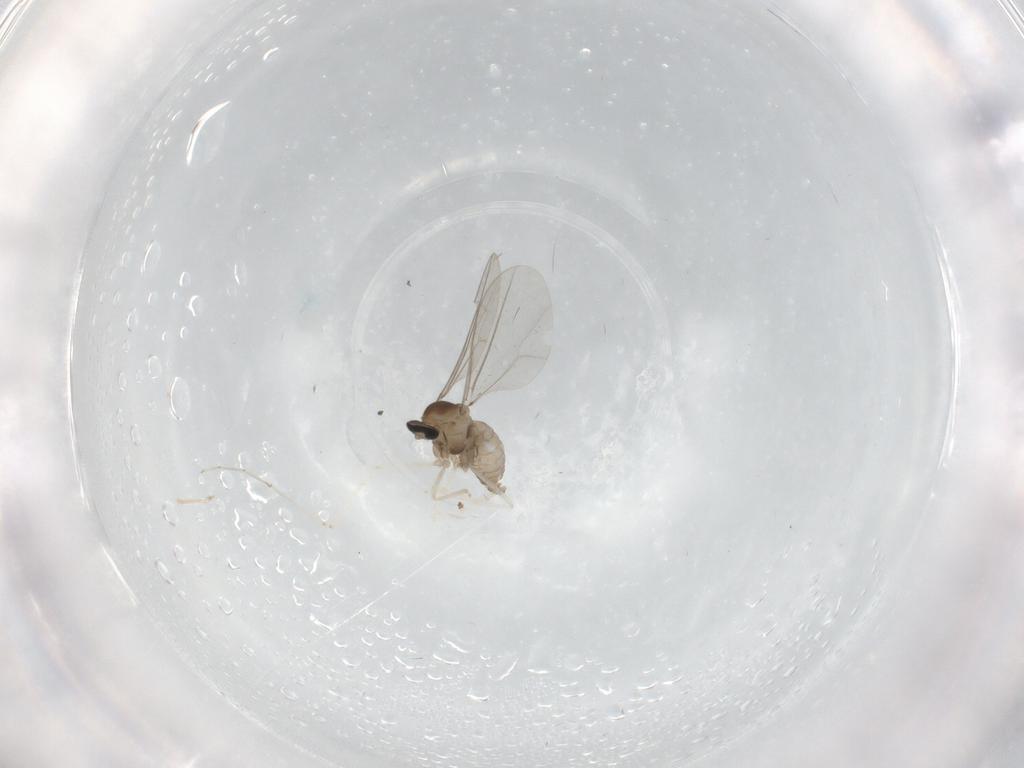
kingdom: Animalia
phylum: Arthropoda
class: Insecta
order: Diptera
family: Cecidomyiidae
